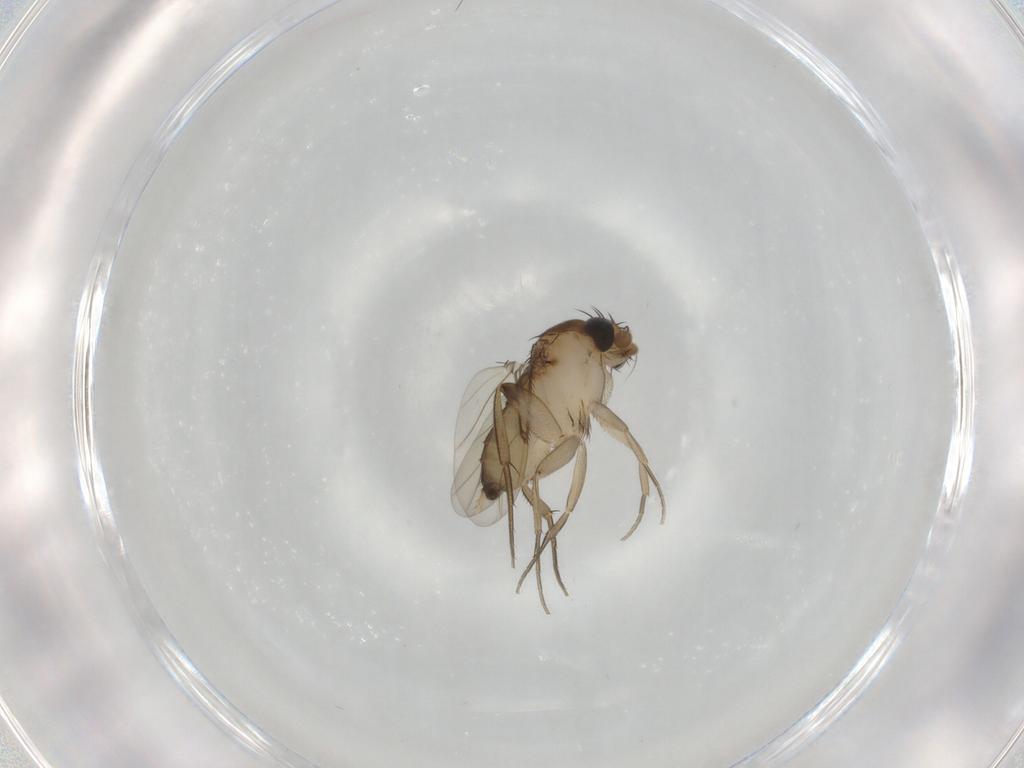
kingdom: Animalia
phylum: Arthropoda
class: Insecta
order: Diptera
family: Phoridae
